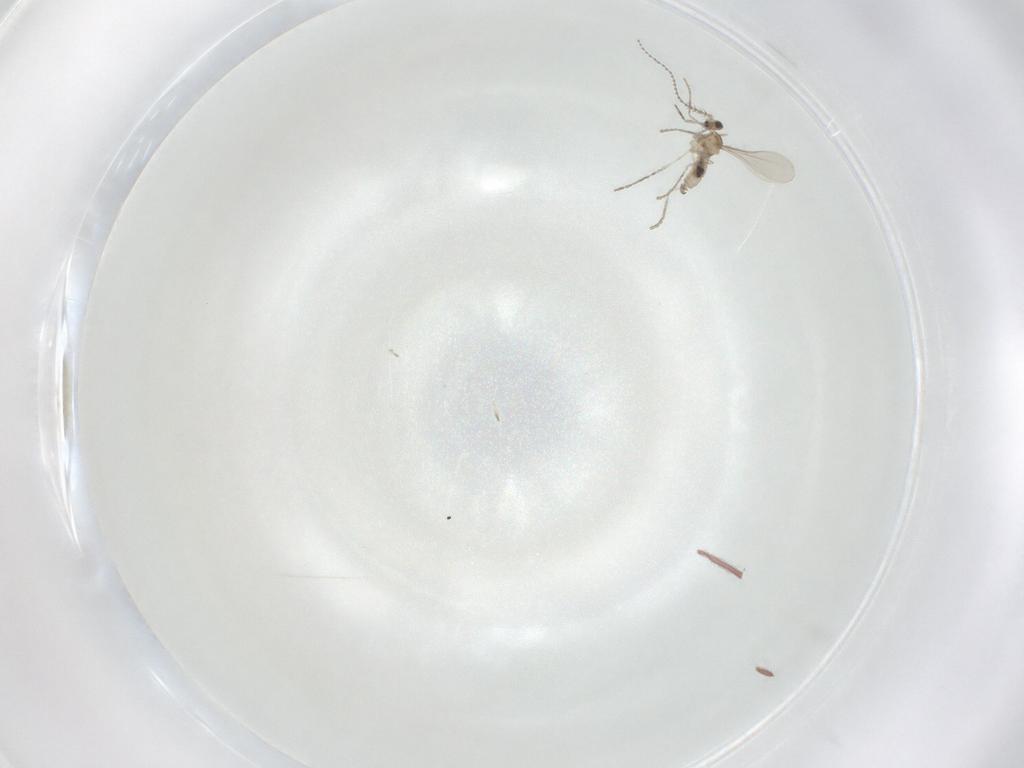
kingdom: Animalia
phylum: Arthropoda
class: Insecta
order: Diptera
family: Cecidomyiidae
